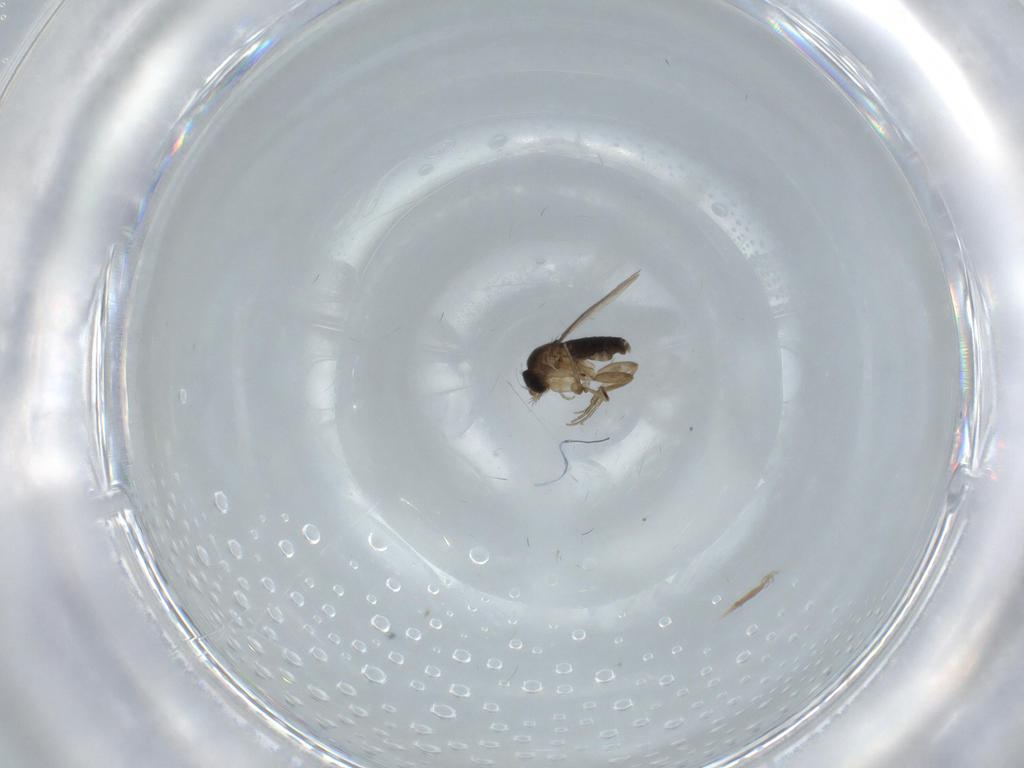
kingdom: Animalia
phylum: Arthropoda
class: Insecta
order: Diptera
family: Phoridae
